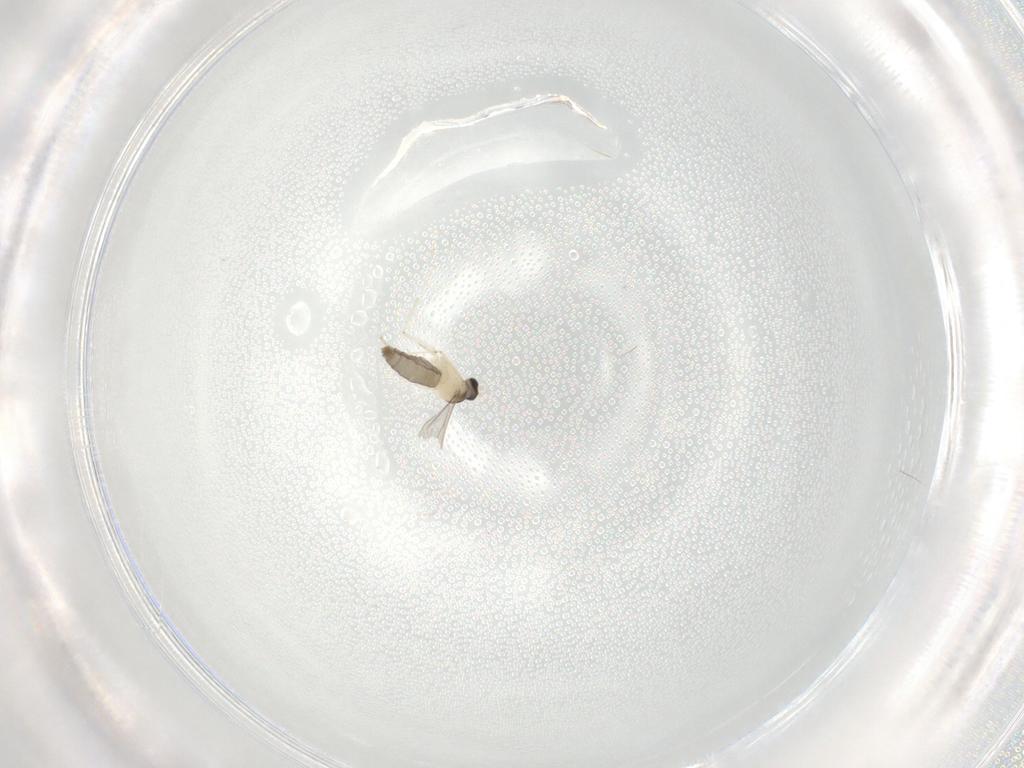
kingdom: Animalia
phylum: Arthropoda
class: Insecta
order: Diptera
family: Cecidomyiidae
